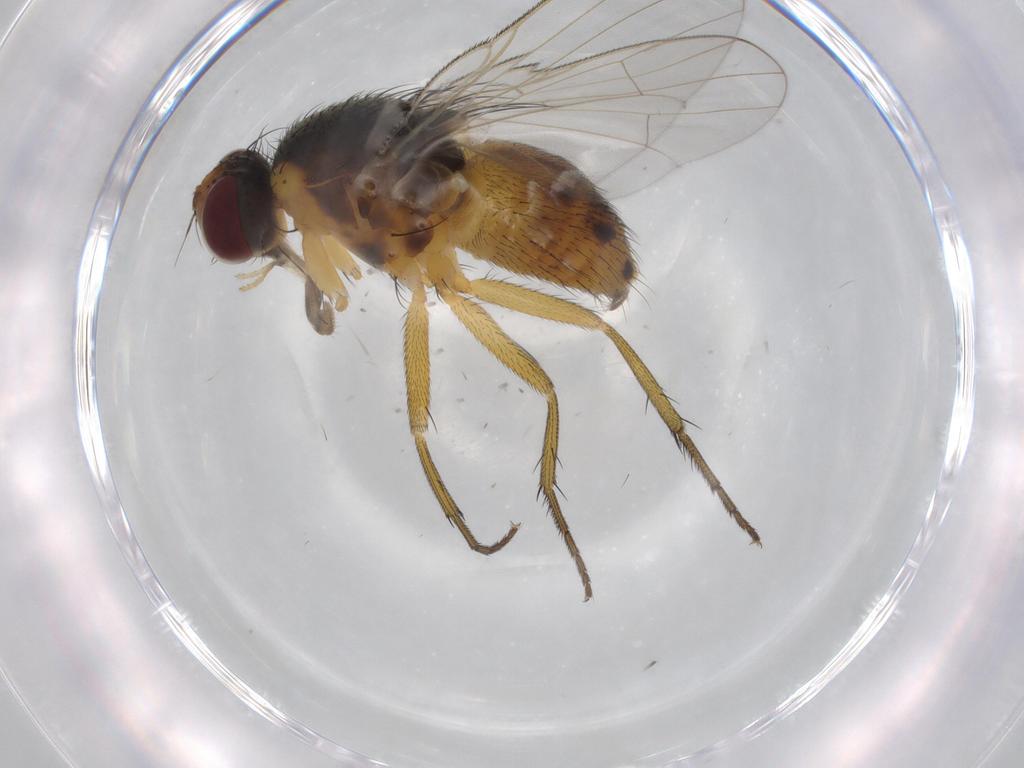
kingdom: Animalia
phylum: Arthropoda
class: Insecta
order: Diptera
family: Muscidae
